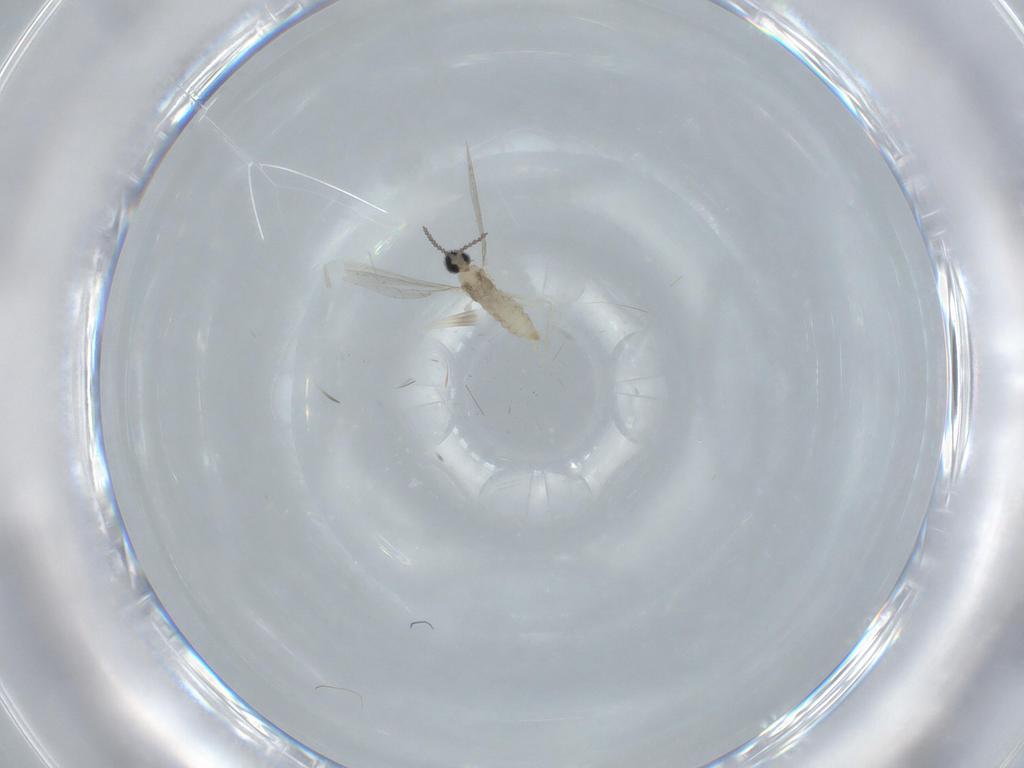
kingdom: Animalia
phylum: Arthropoda
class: Insecta
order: Diptera
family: Cecidomyiidae
